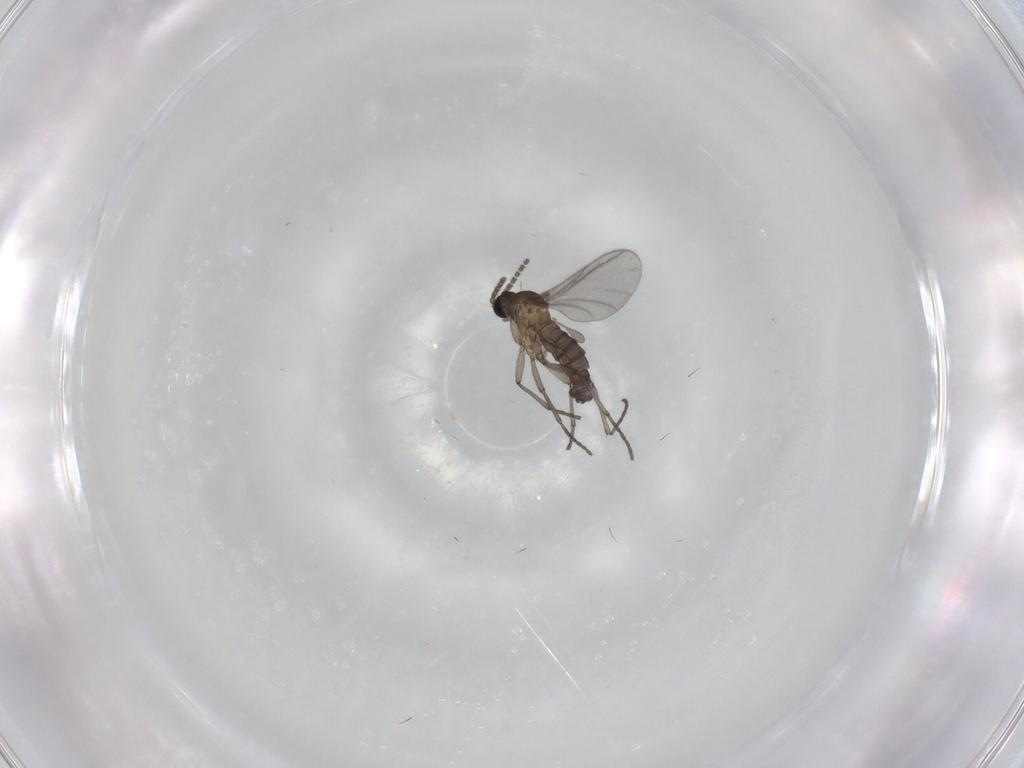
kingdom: Animalia
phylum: Arthropoda
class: Insecta
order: Diptera
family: Sciaridae
